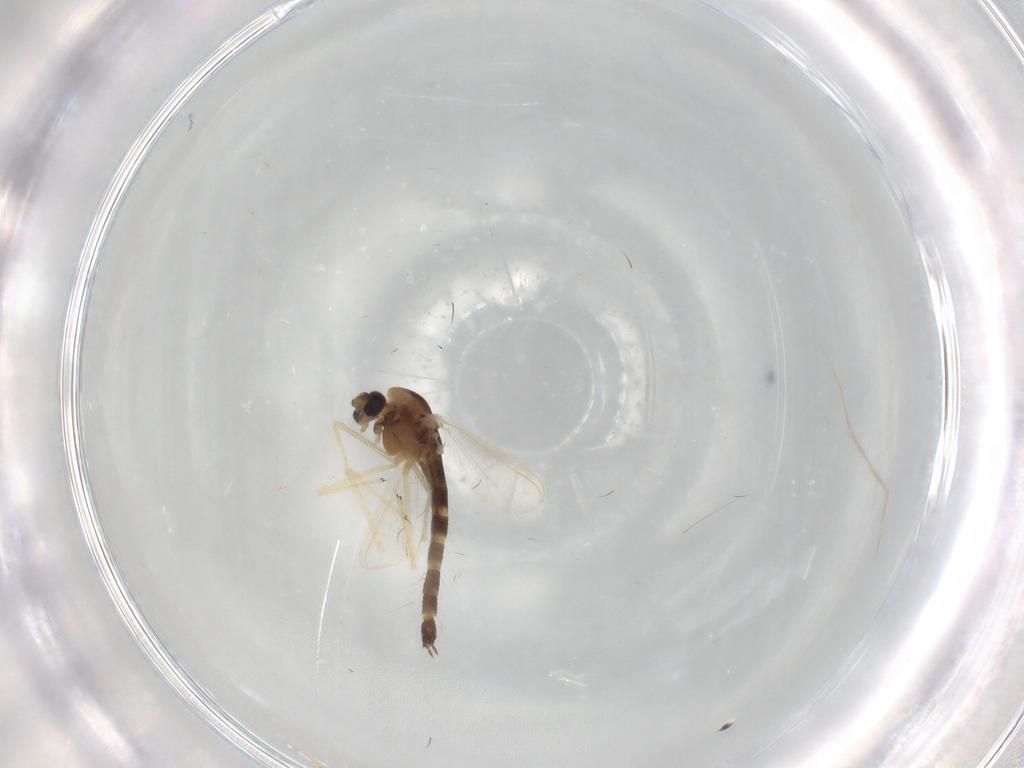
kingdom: Animalia
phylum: Arthropoda
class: Insecta
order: Diptera
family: Chironomidae
